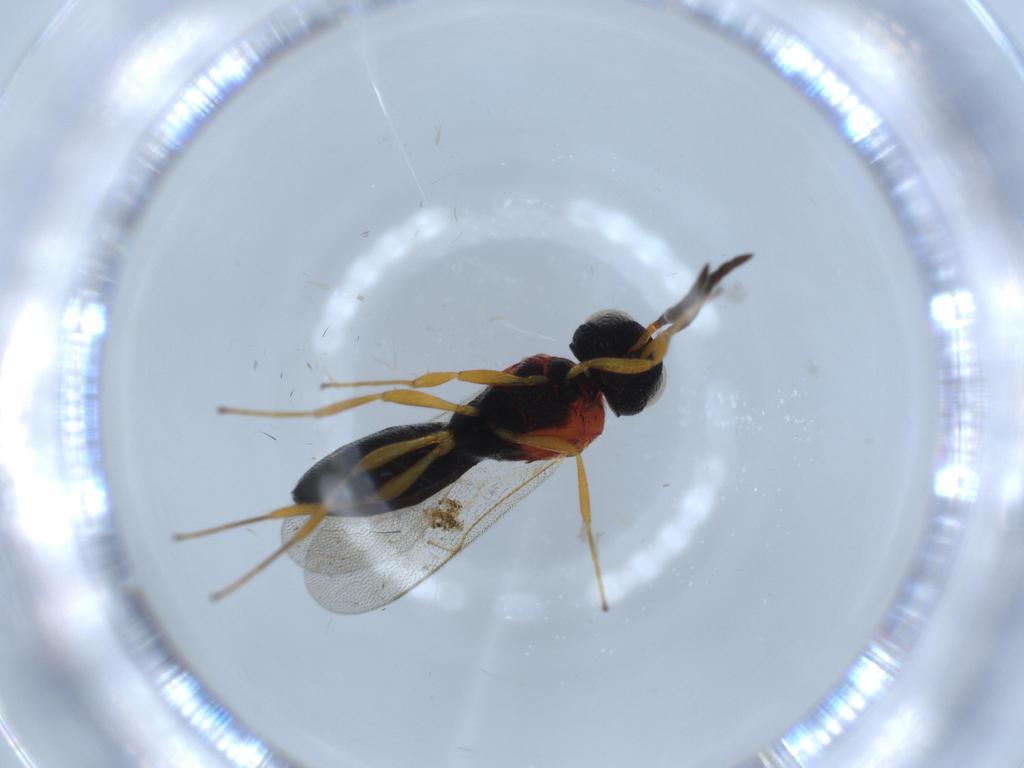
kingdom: Animalia
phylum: Arthropoda
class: Insecta
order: Hymenoptera
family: Scelionidae
